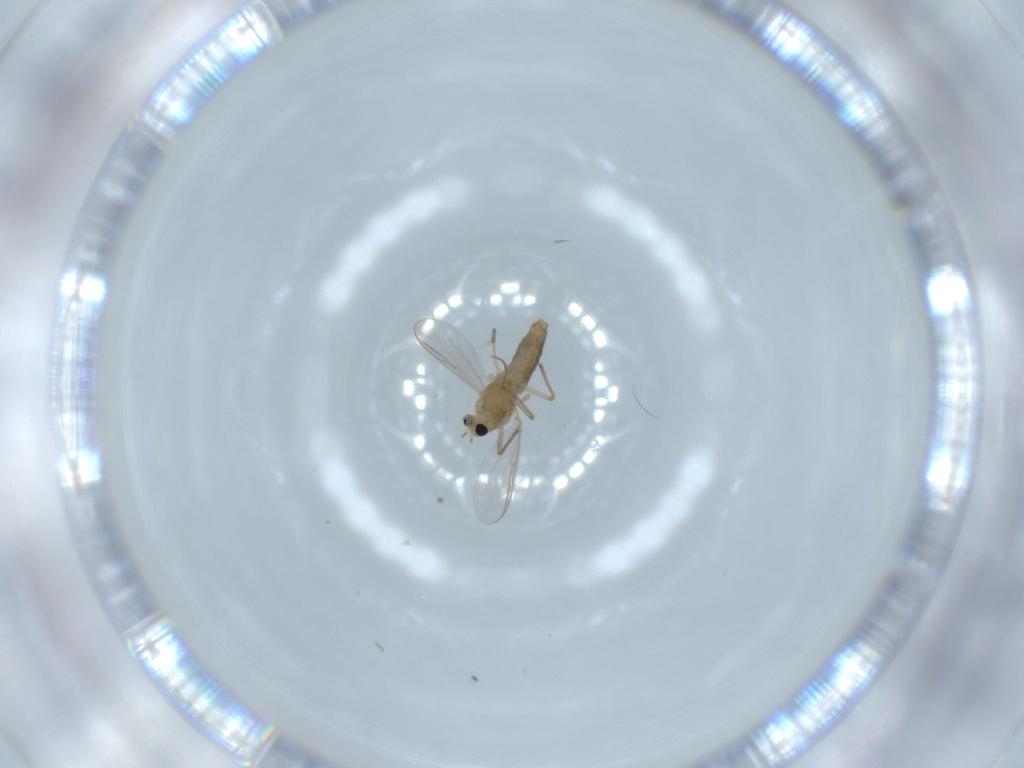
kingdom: Animalia
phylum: Arthropoda
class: Insecta
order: Diptera
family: Chironomidae
